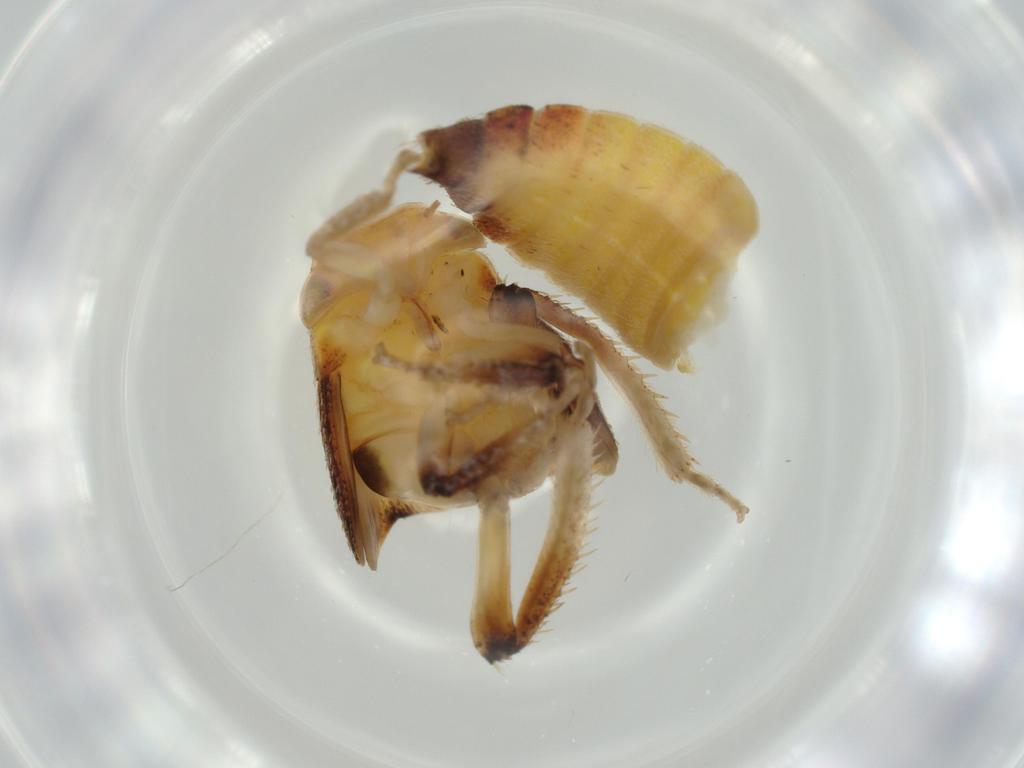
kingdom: Animalia
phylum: Arthropoda
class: Insecta
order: Hemiptera
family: Cicadellidae
